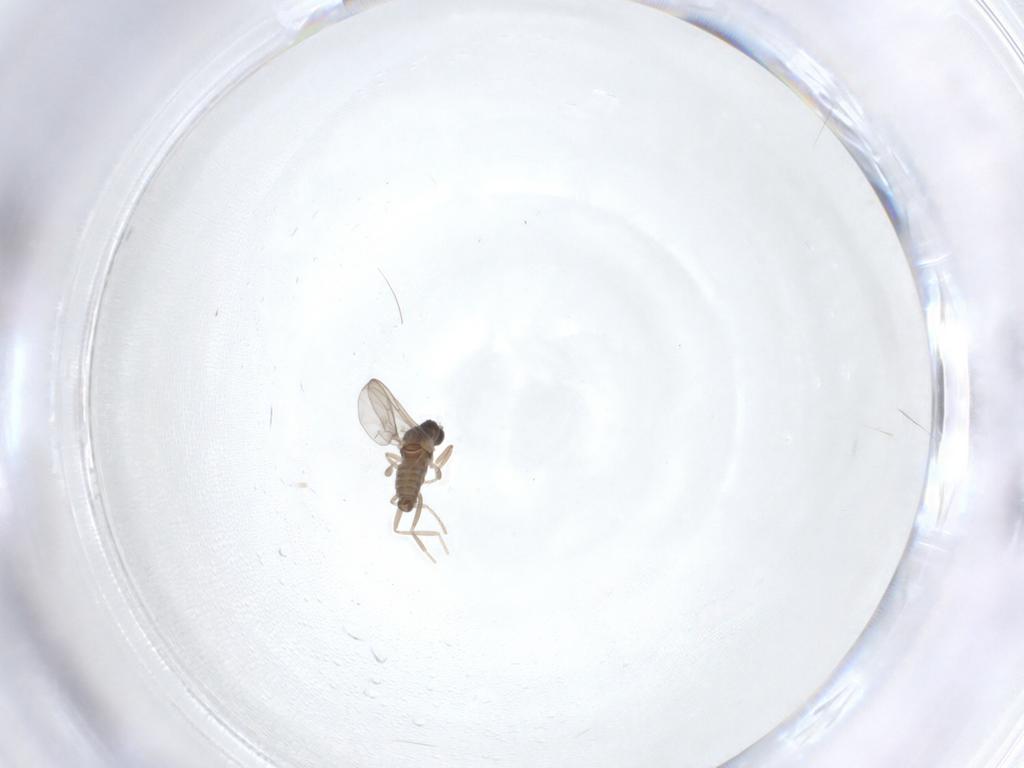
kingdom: Animalia
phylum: Arthropoda
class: Insecta
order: Diptera
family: Cecidomyiidae
